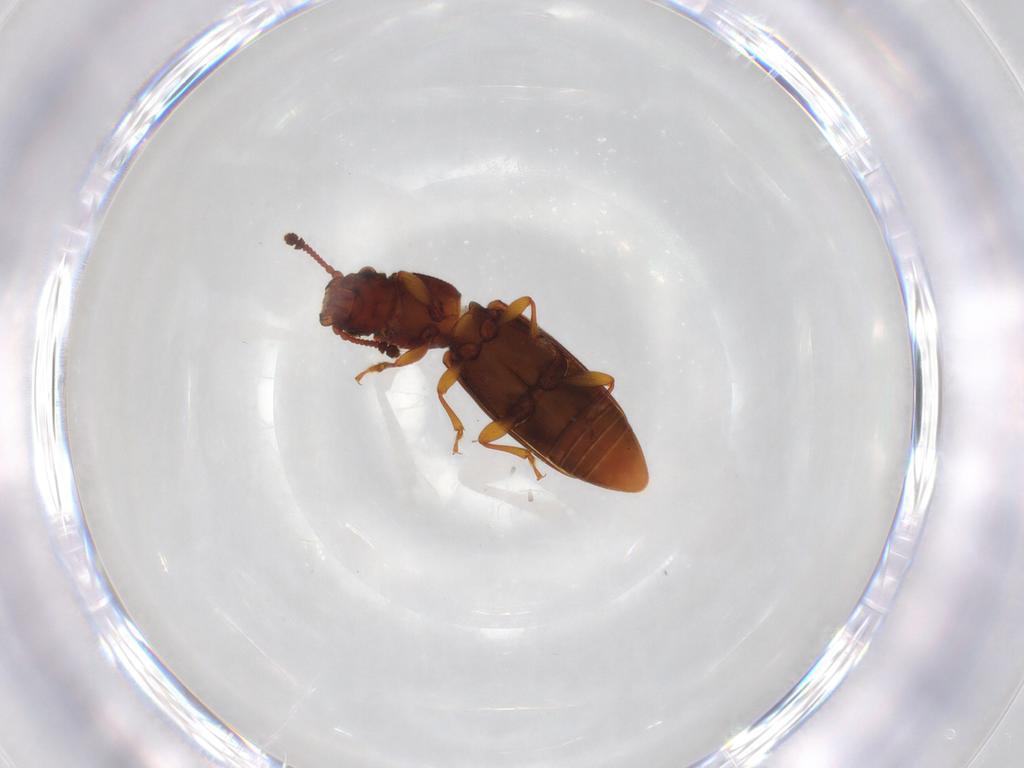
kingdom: Animalia
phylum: Arthropoda
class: Insecta
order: Coleoptera
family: Monotomidae
